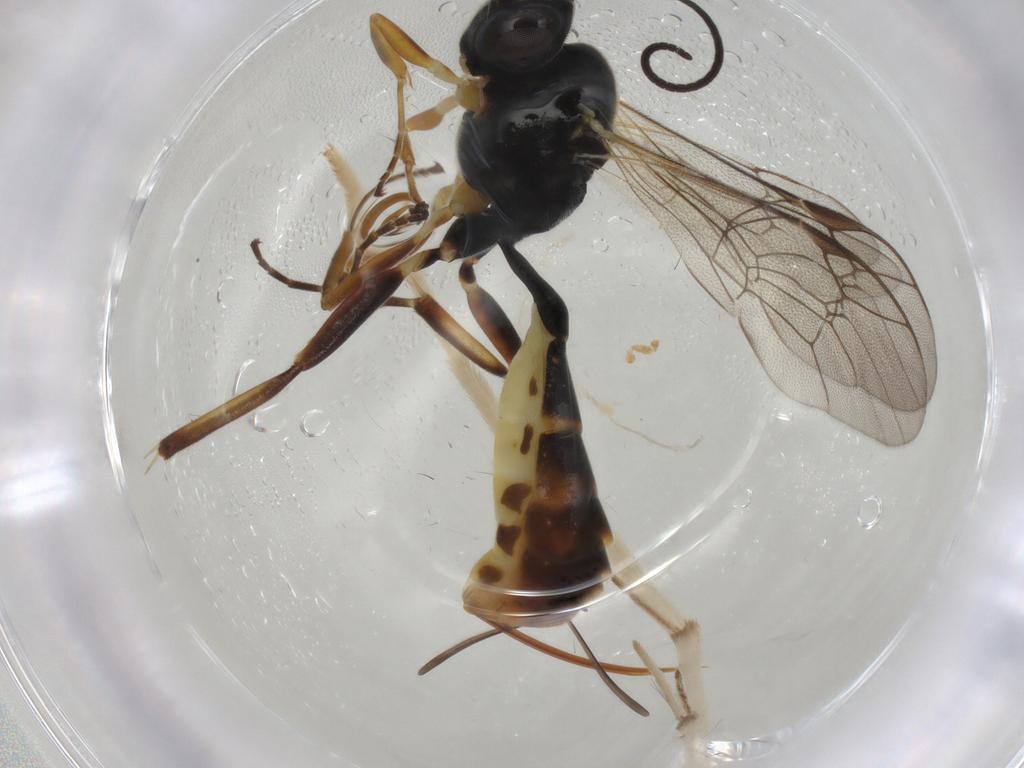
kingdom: Animalia
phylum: Arthropoda
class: Insecta
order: Hymenoptera
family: Ichneumonidae
